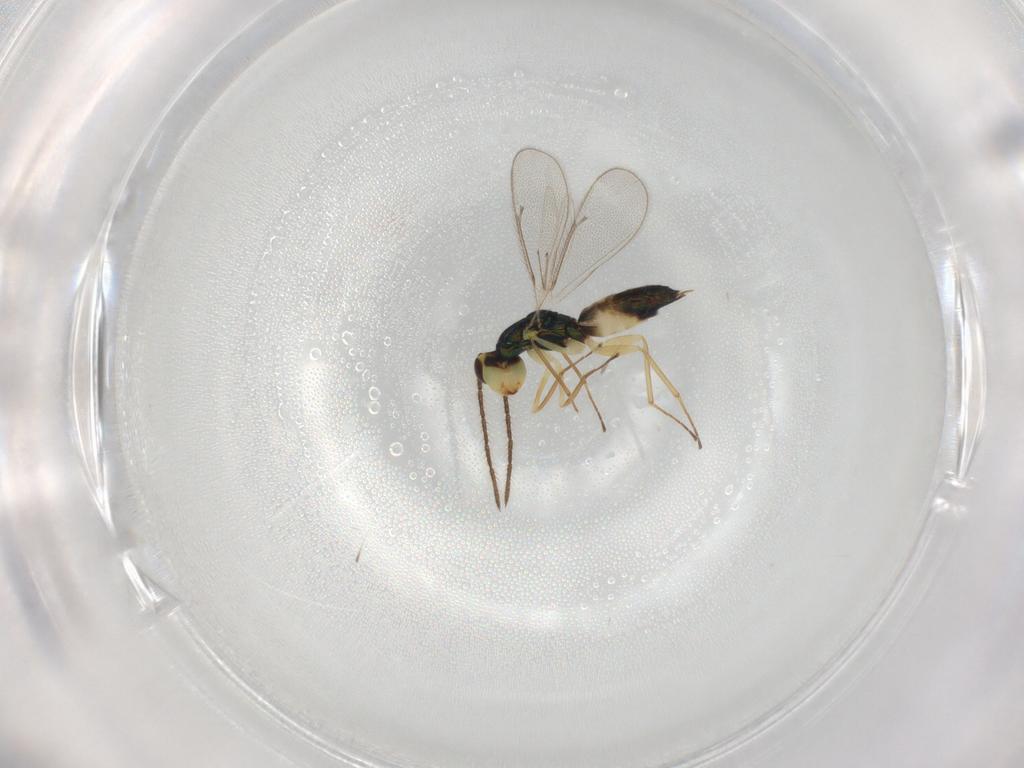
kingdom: Animalia
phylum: Arthropoda
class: Insecta
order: Hymenoptera
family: Eulophidae
